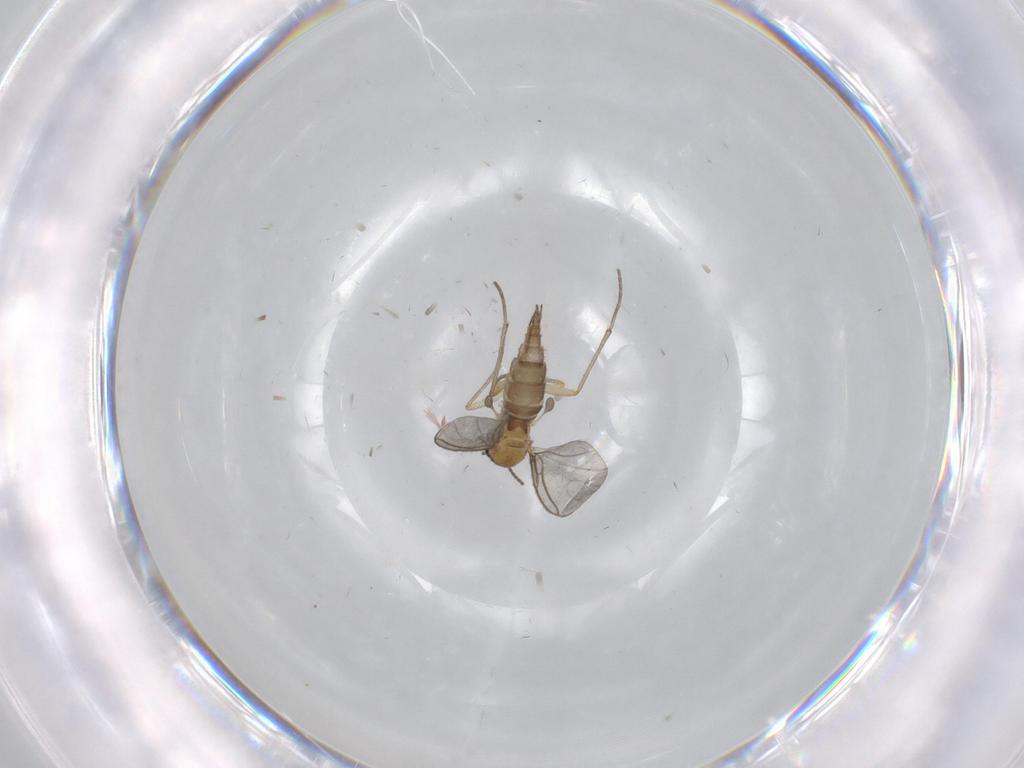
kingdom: Animalia
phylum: Arthropoda
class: Insecta
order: Diptera
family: Sciaridae
